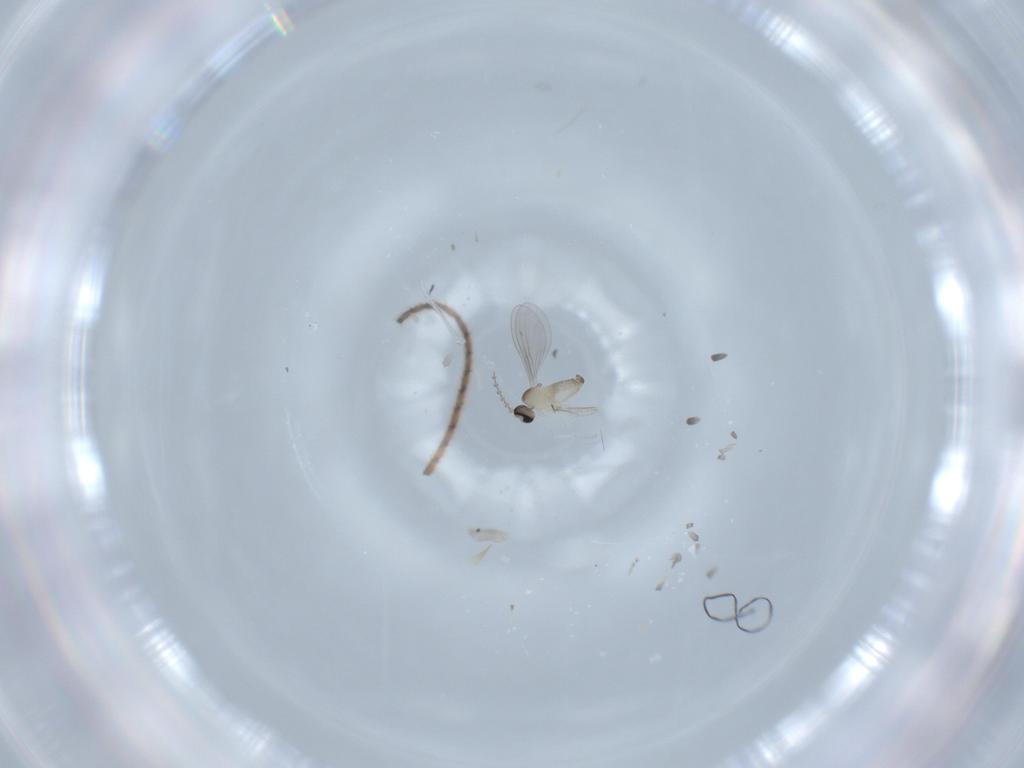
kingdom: Animalia
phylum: Arthropoda
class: Insecta
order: Diptera
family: Cecidomyiidae
